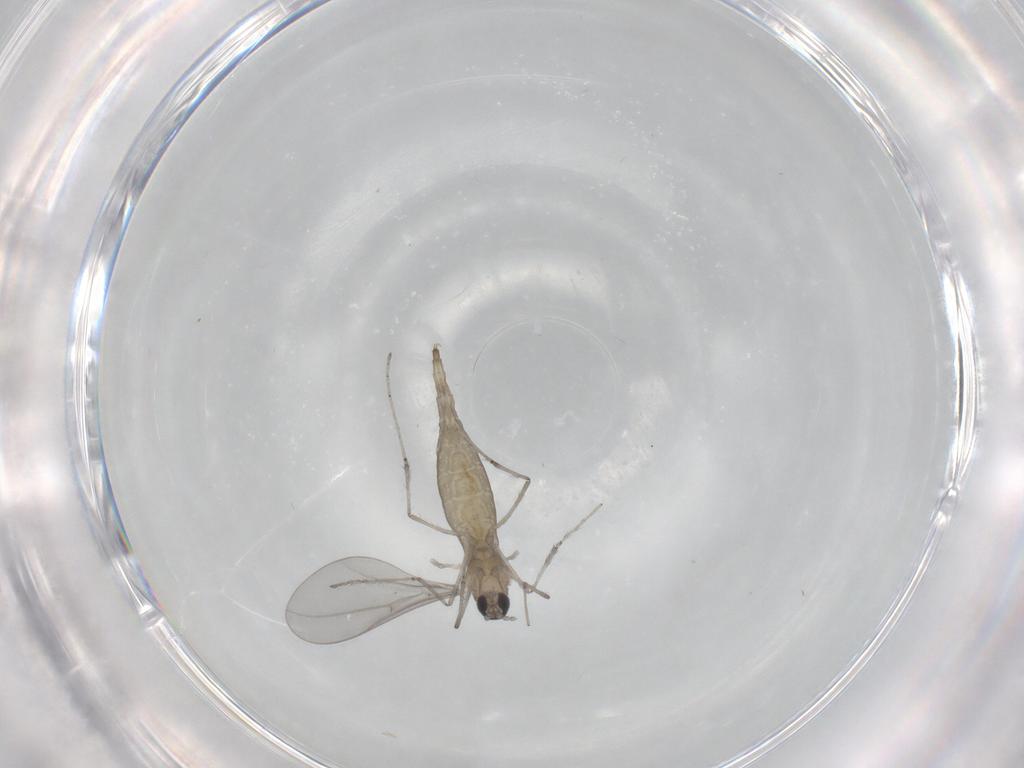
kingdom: Animalia
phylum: Arthropoda
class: Insecta
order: Diptera
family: Cecidomyiidae
